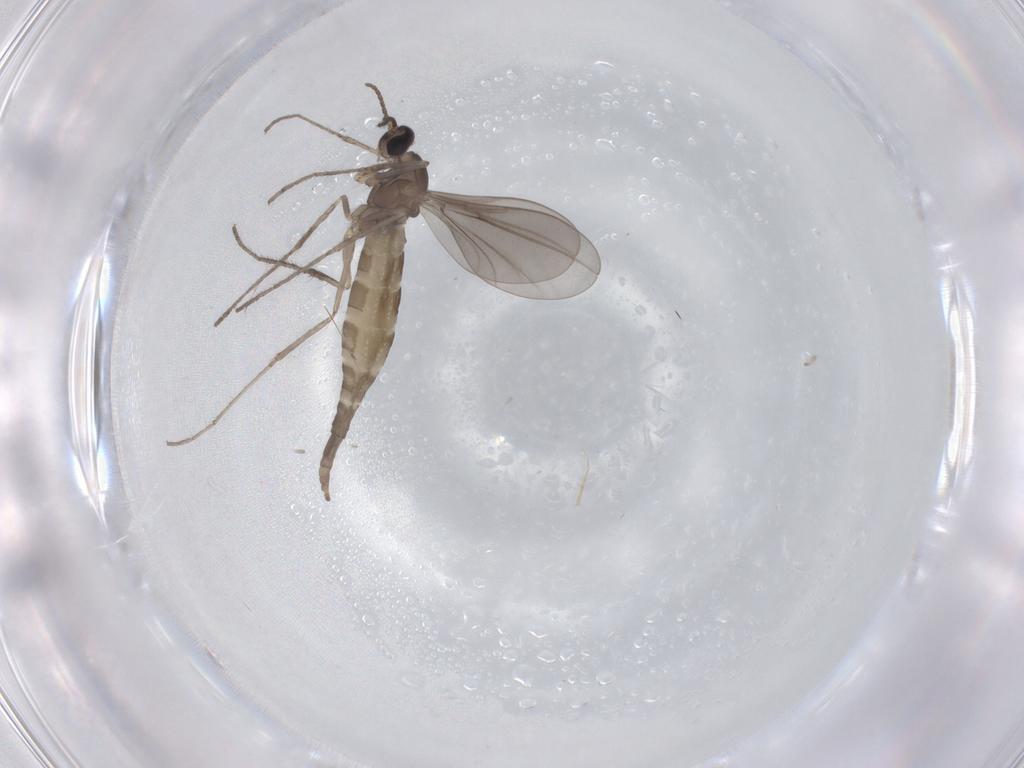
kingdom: Animalia
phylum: Arthropoda
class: Insecta
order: Diptera
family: Cecidomyiidae
